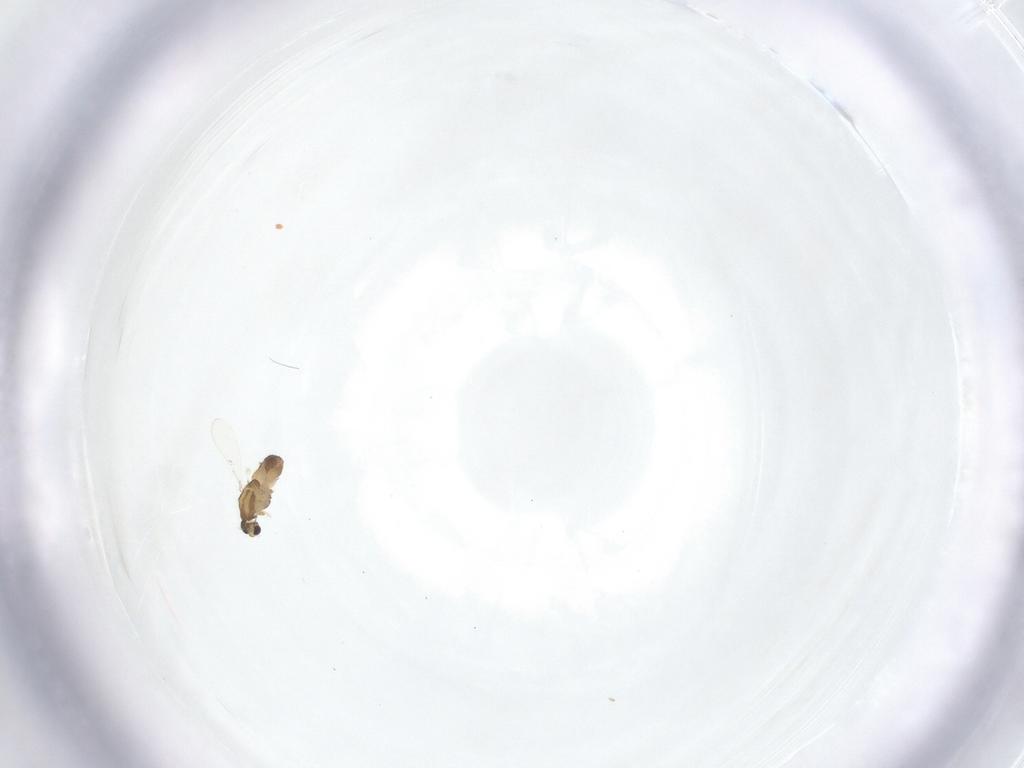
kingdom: Animalia
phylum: Arthropoda
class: Insecta
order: Diptera
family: Chironomidae
